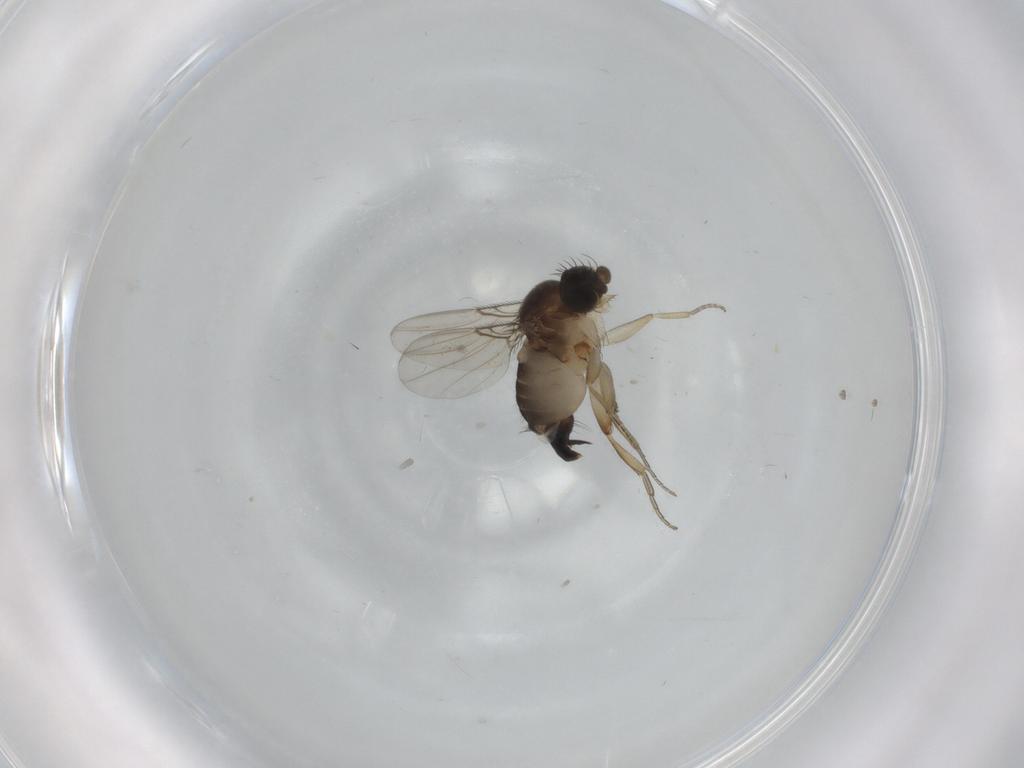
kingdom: Animalia
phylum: Arthropoda
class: Insecta
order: Diptera
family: Phoridae
